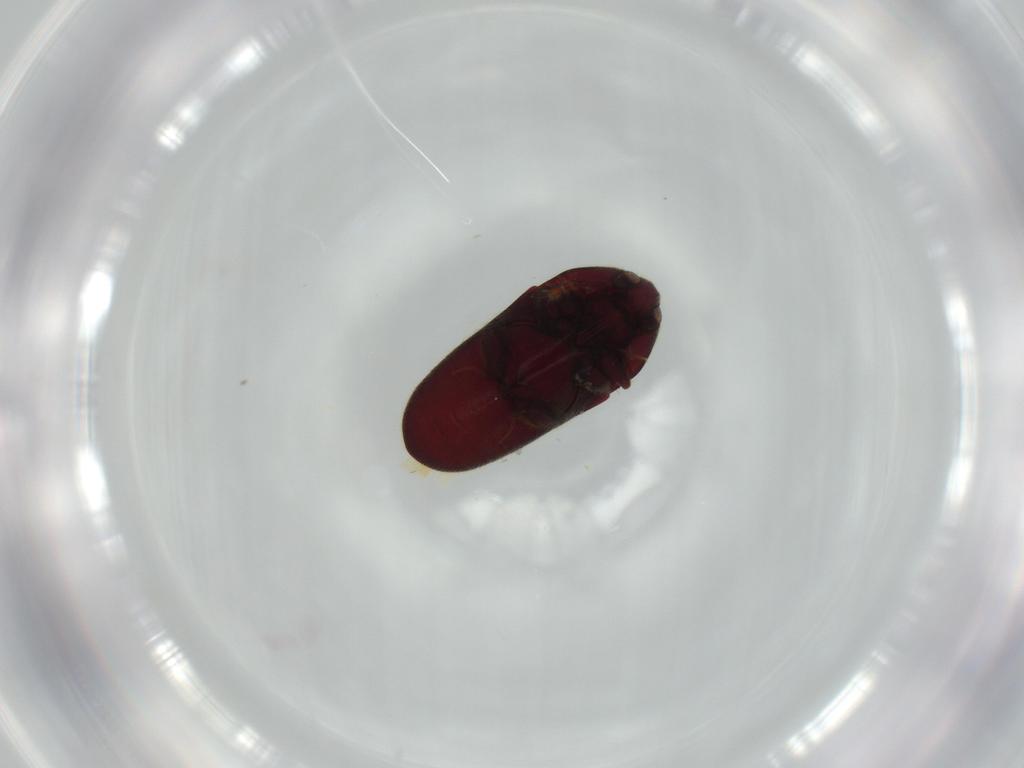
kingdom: Animalia
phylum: Arthropoda
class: Insecta
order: Coleoptera
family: Throscidae
